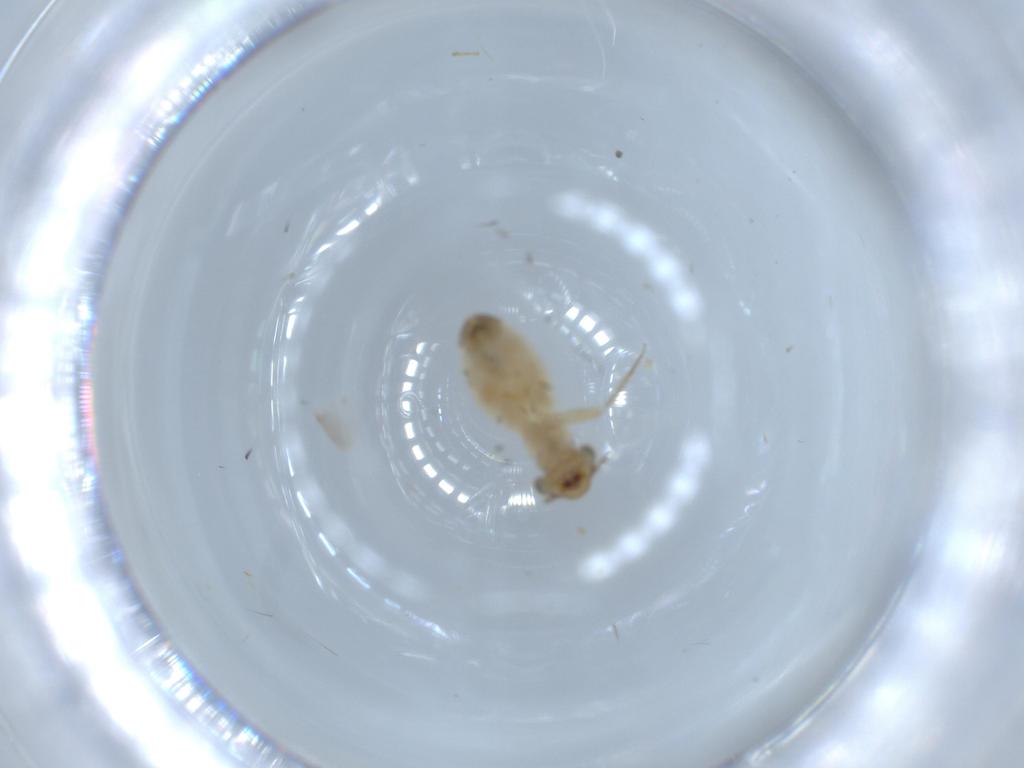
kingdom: Animalia
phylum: Arthropoda
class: Insecta
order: Psocodea
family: Lepidopsocidae
